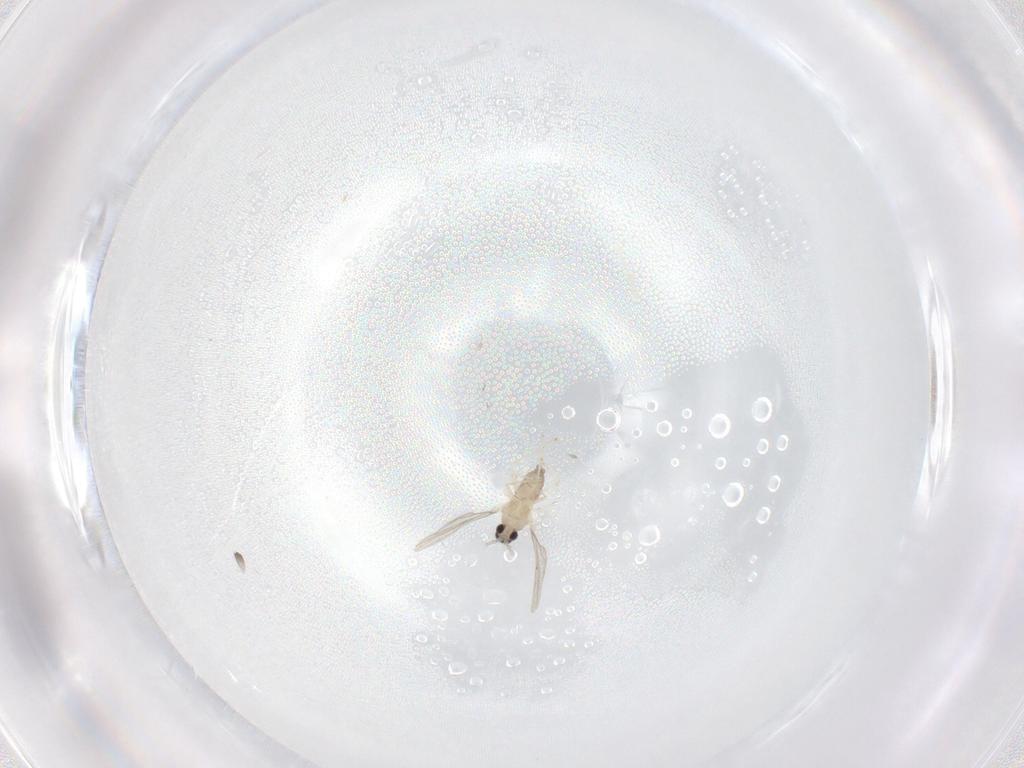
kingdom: Animalia
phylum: Arthropoda
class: Insecta
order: Diptera
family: Cecidomyiidae
